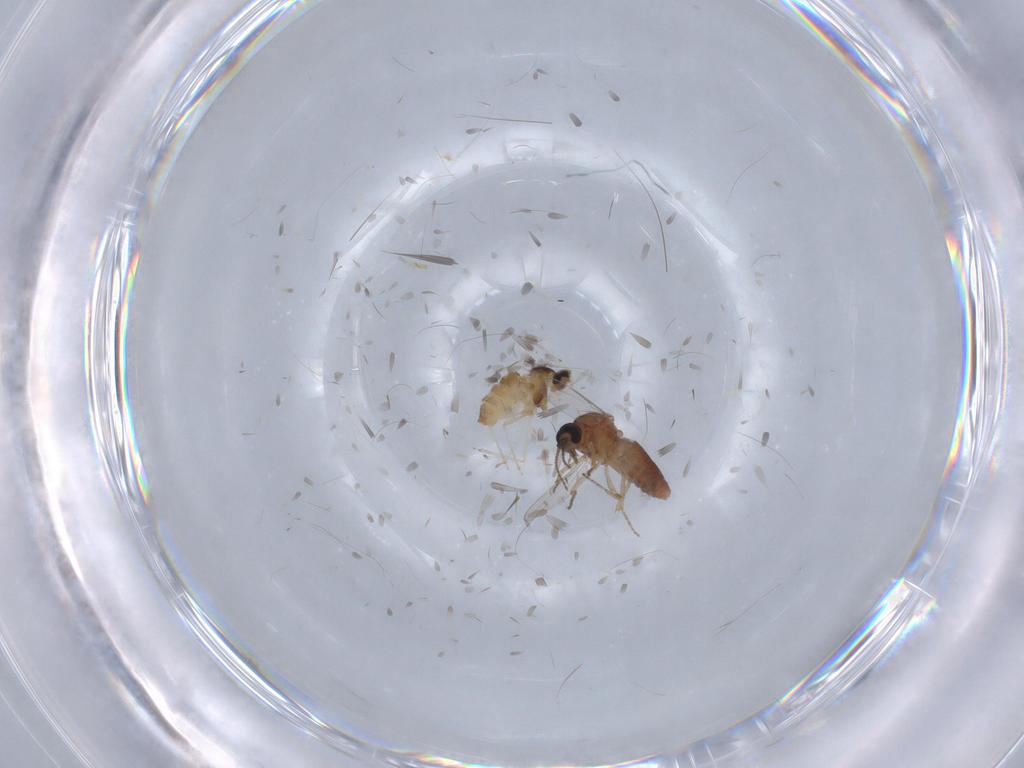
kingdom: Animalia
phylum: Arthropoda
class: Insecta
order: Diptera
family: Cecidomyiidae
